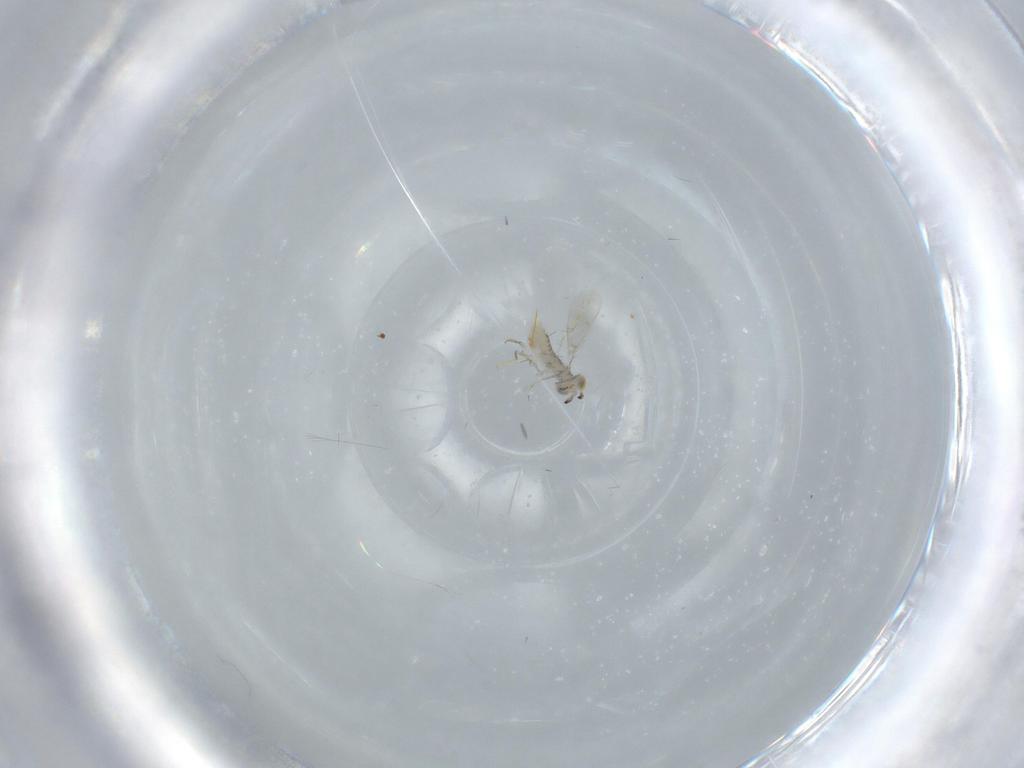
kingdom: Animalia
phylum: Arthropoda
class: Insecta
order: Hymenoptera
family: Aphelinidae
